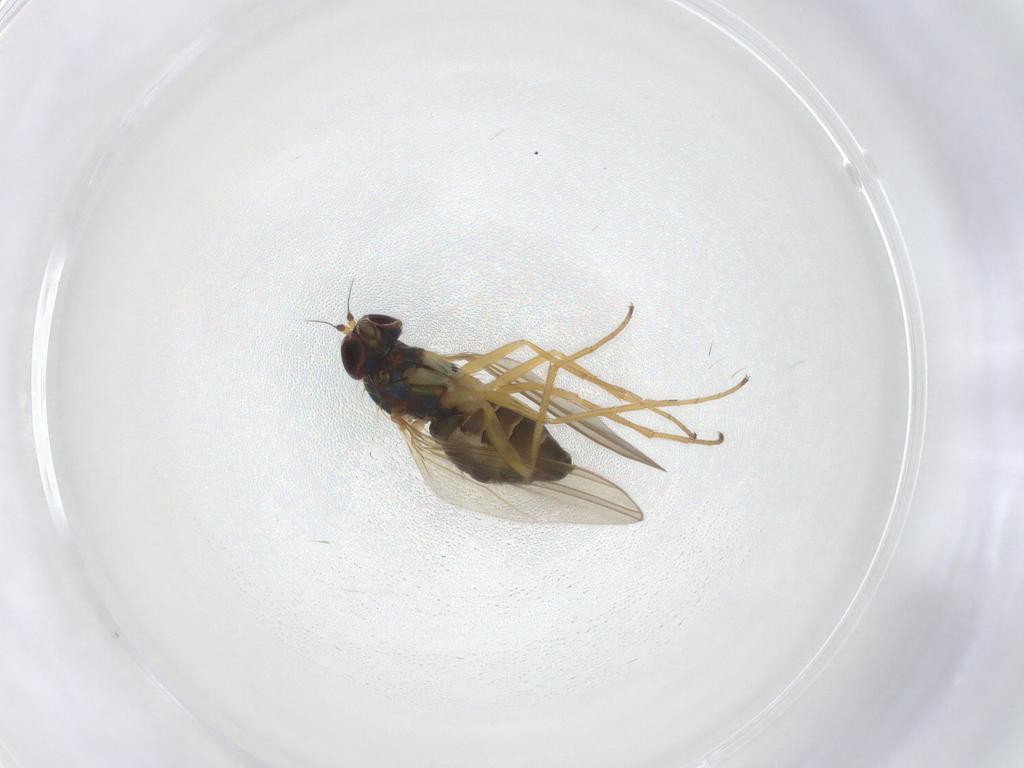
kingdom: Animalia
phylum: Arthropoda
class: Insecta
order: Diptera
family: Dolichopodidae
